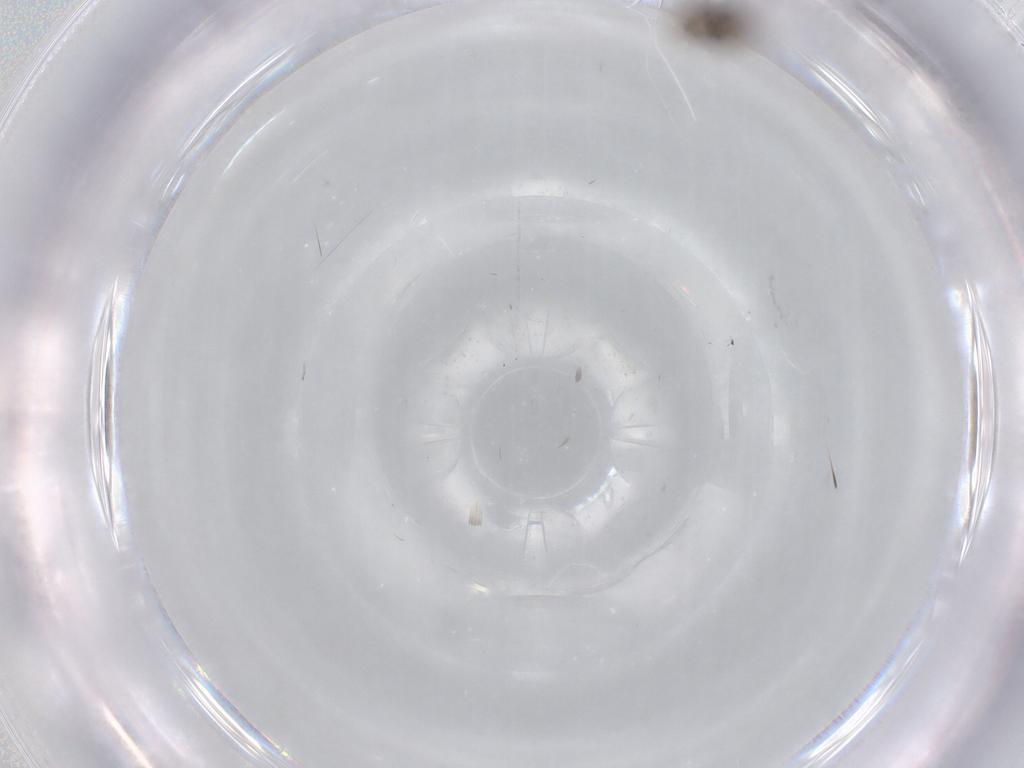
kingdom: Animalia
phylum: Arthropoda
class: Insecta
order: Hymenoptera
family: Eulophidae
